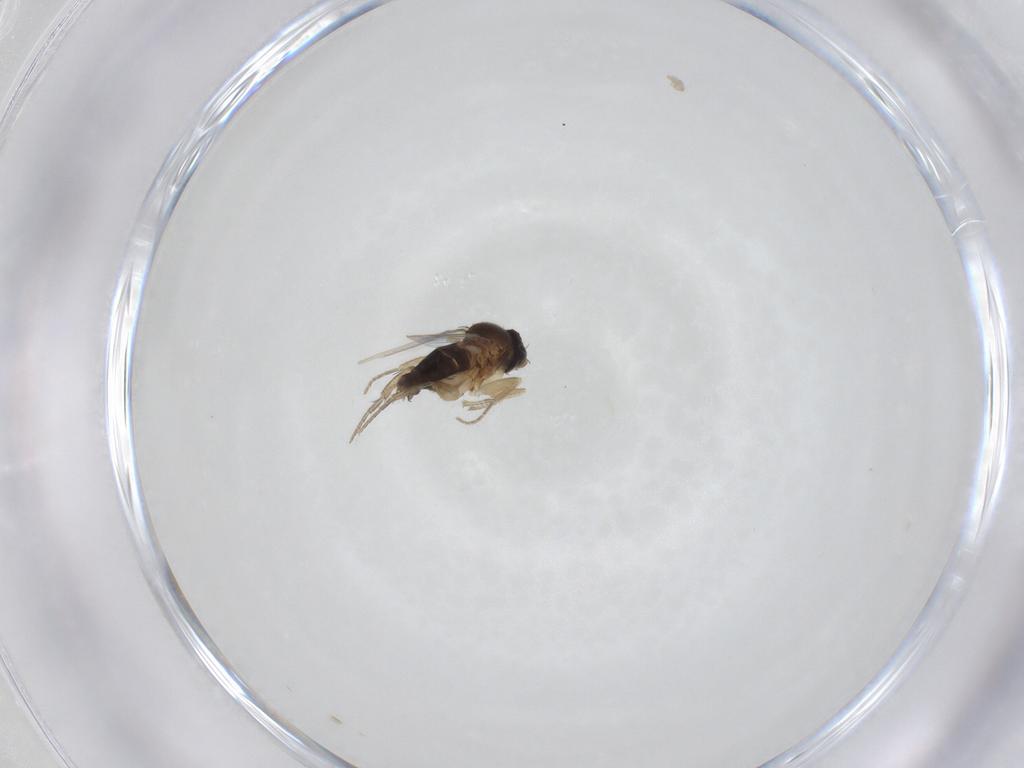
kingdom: Animalia
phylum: Arthropoda
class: Insecta
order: Diptera
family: Phoridae
